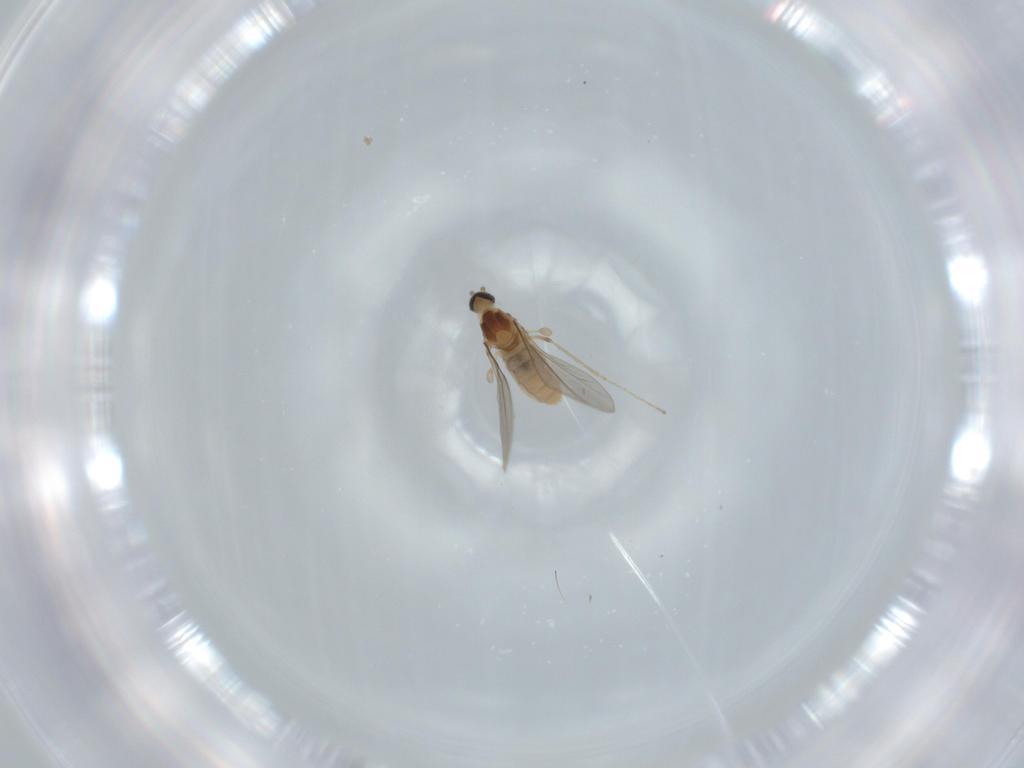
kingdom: Animalia
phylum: Arthropoda
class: Insecta
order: Diptera
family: Cecidomyiidae
